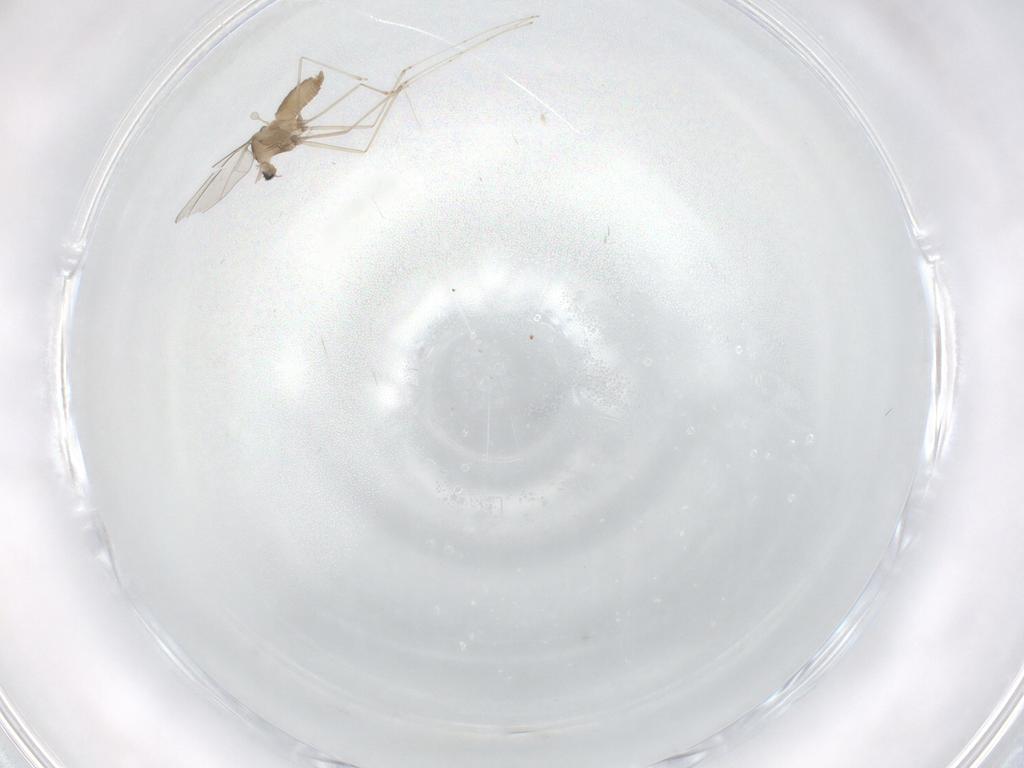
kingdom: Animalia
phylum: Arthropoda
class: Insecta
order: Diptera
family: Cecidomyiidae
